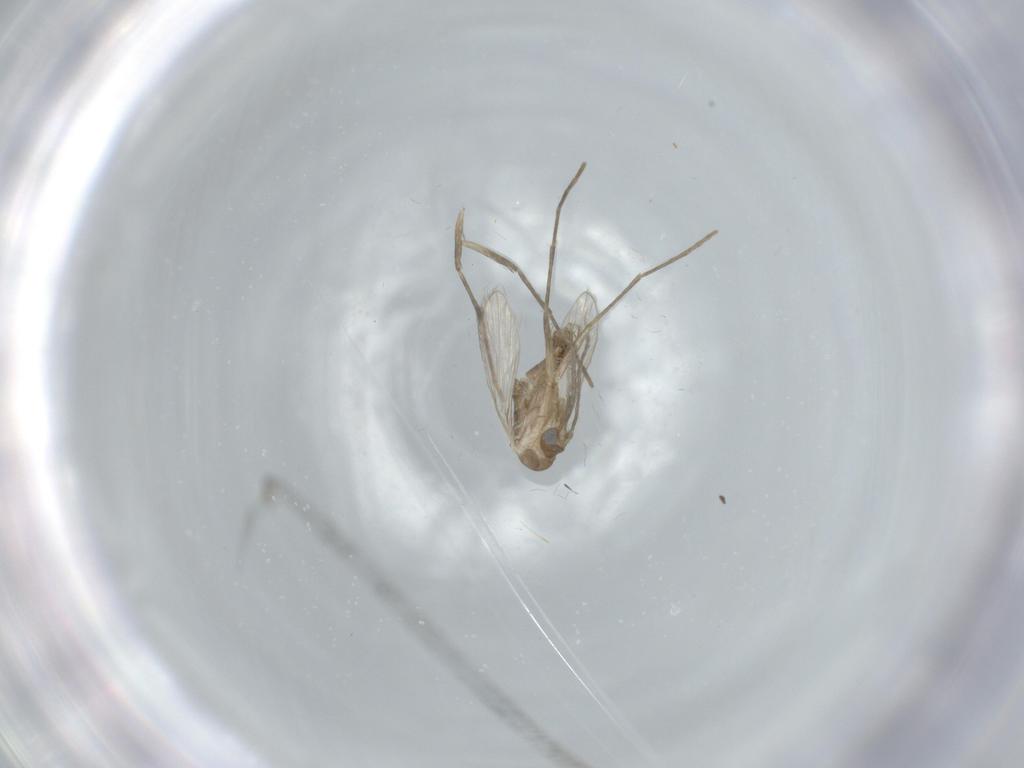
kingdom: Animalia
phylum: Arthropoda
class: Insecta
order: Diptera
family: Psychodidae
